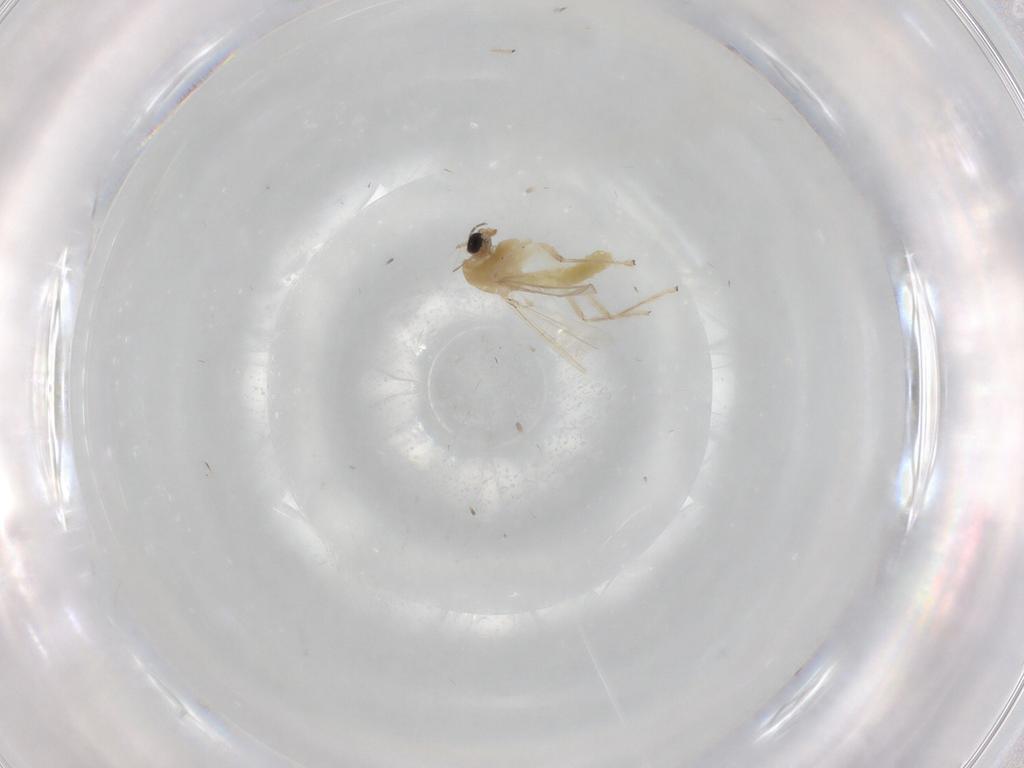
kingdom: Animalia
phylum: Arthropoda
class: Insecta
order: Diptera
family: Chironomidae
